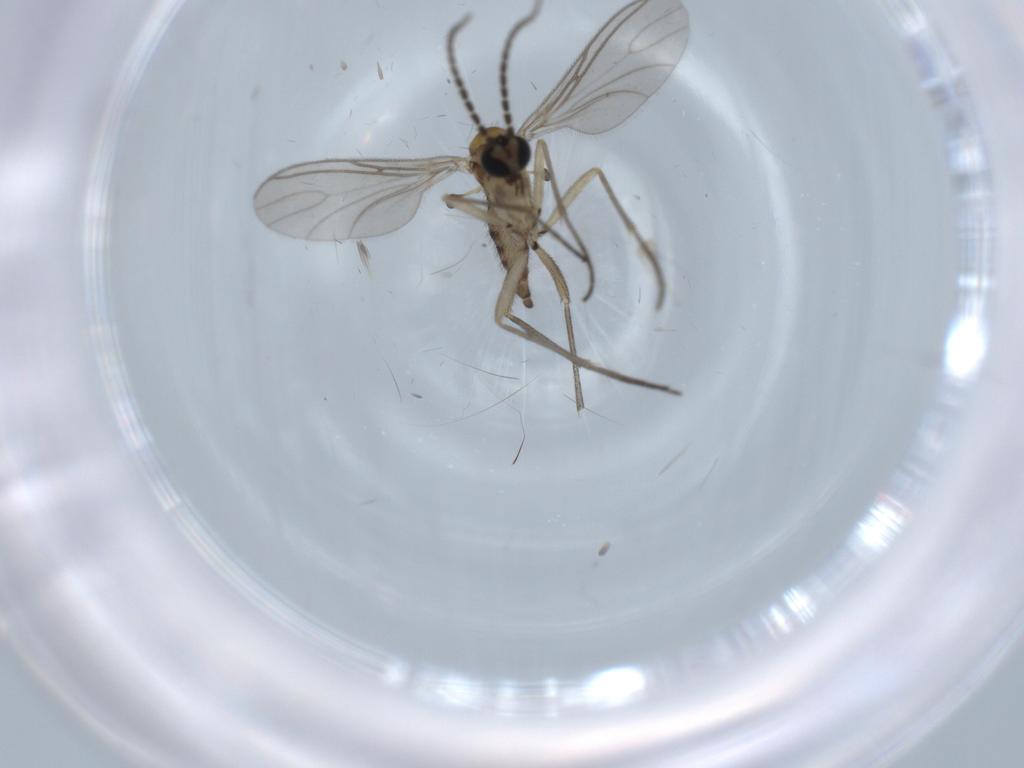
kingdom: Animalia
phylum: Arthropoda
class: Insecta
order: Diptera
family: Sciaridae
